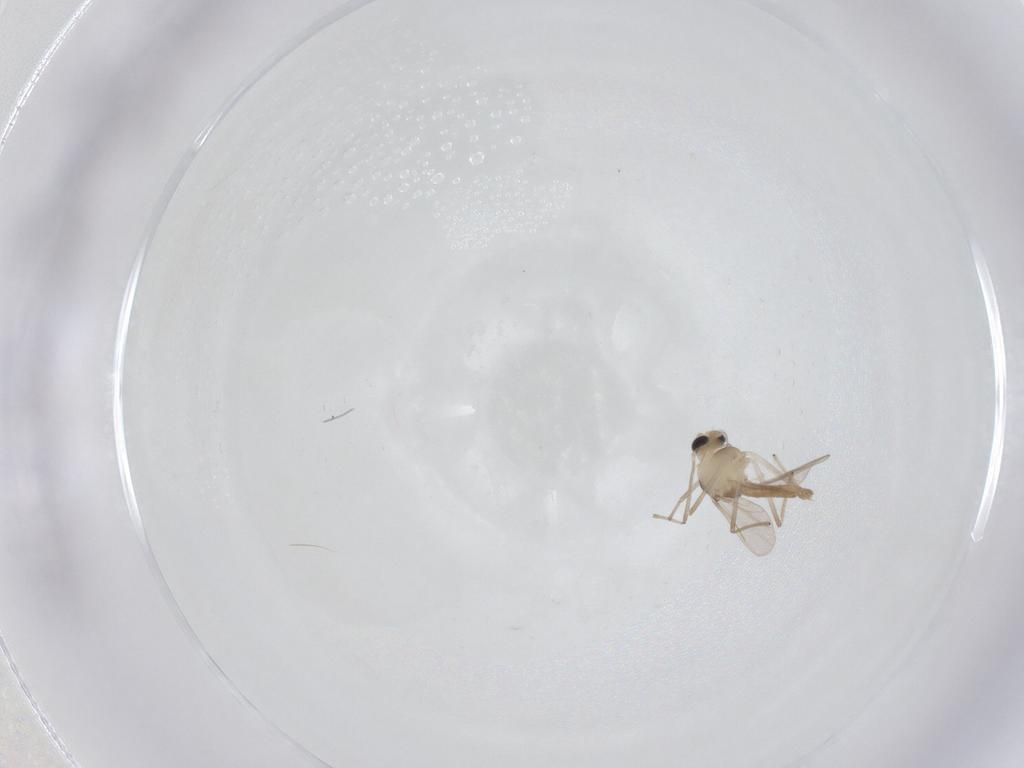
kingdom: Animalia
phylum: Arthropoda
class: Insecta
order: Diptera
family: Chironomidae
